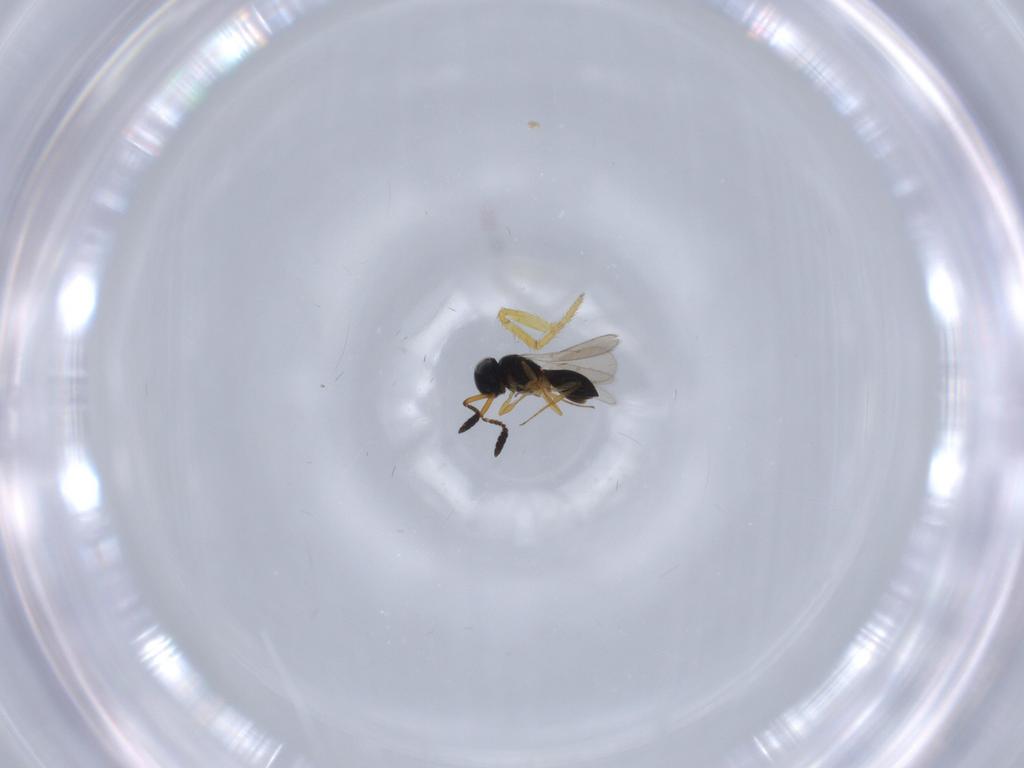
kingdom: Animalia
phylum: Arthropoda
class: Insecta
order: Hymenoptera
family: Scelionidae
